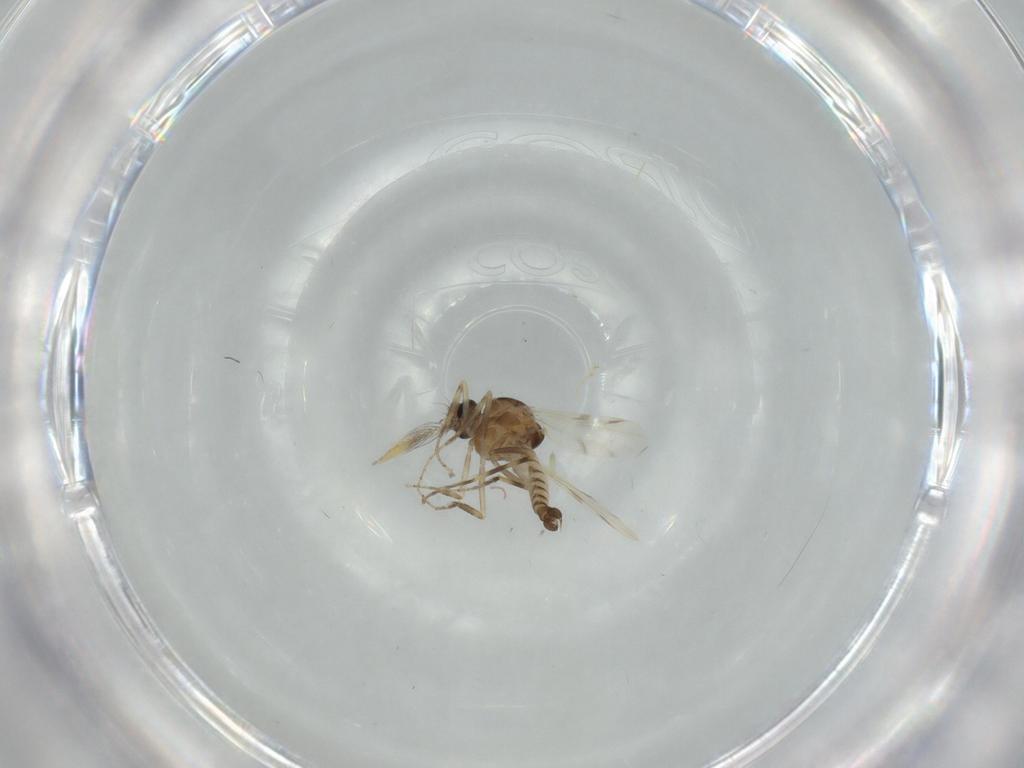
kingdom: Animalia
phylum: Arthropoda
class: Insecta
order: Diptera
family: Ceratopogonidae
